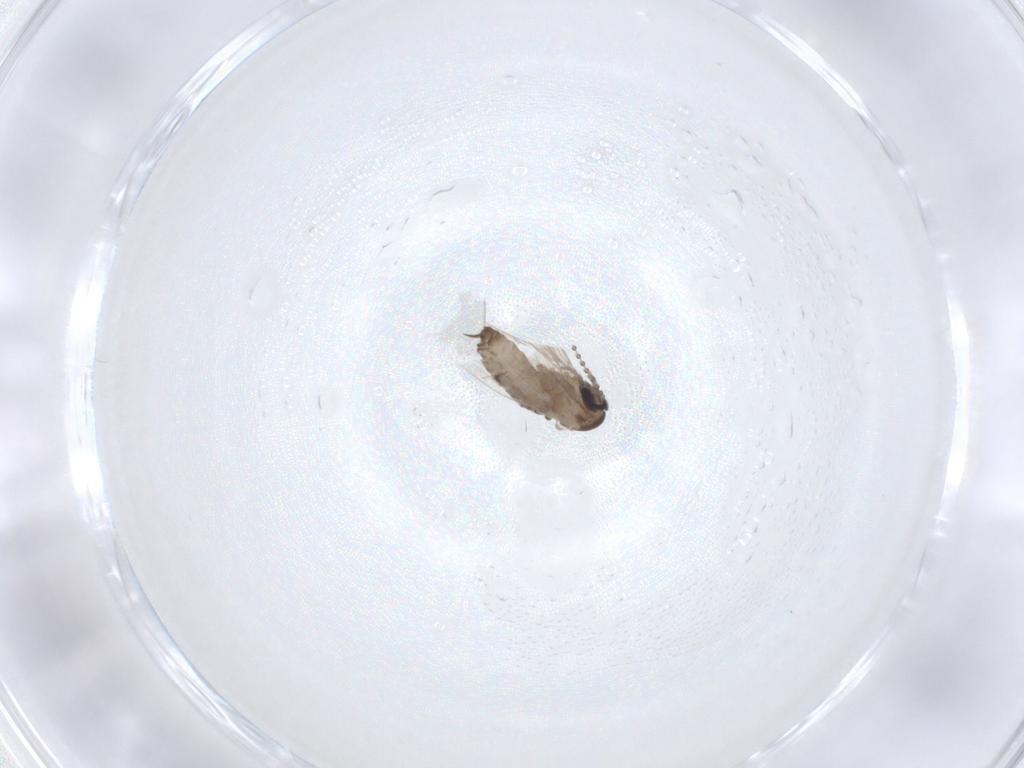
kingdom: Animalia
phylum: Arthropoda
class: Insecta
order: Diptera
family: Psychodidae
